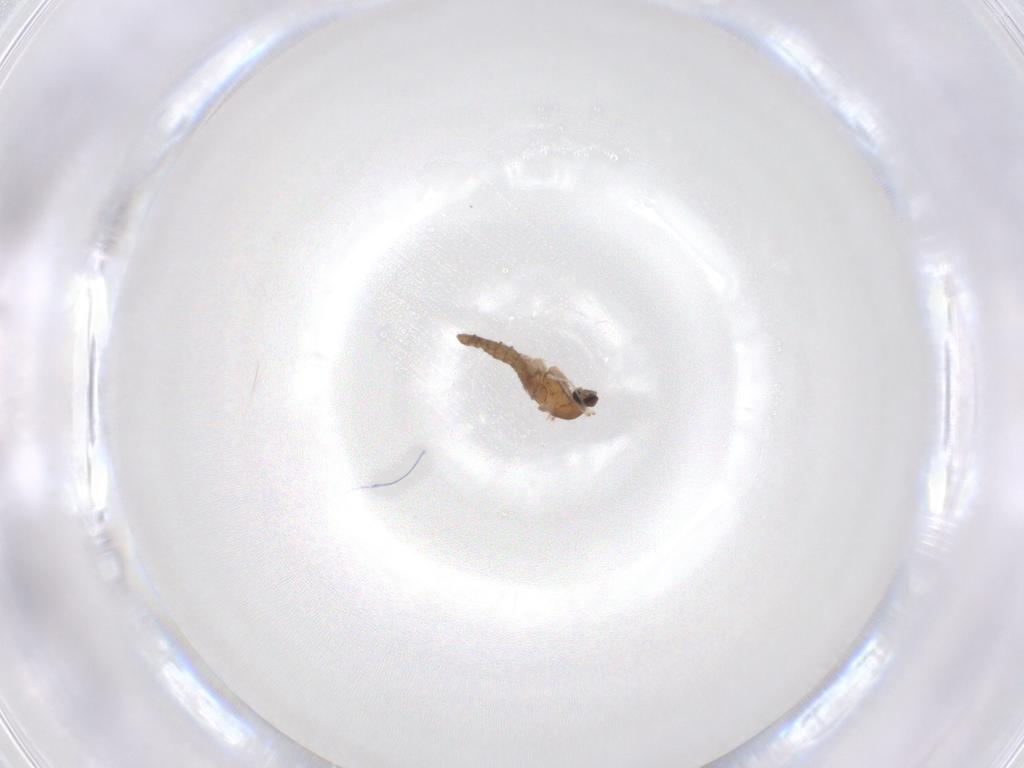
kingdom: Animalia
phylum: Arthropoda
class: Insecta
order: Diptera
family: Cecidomyiidae
